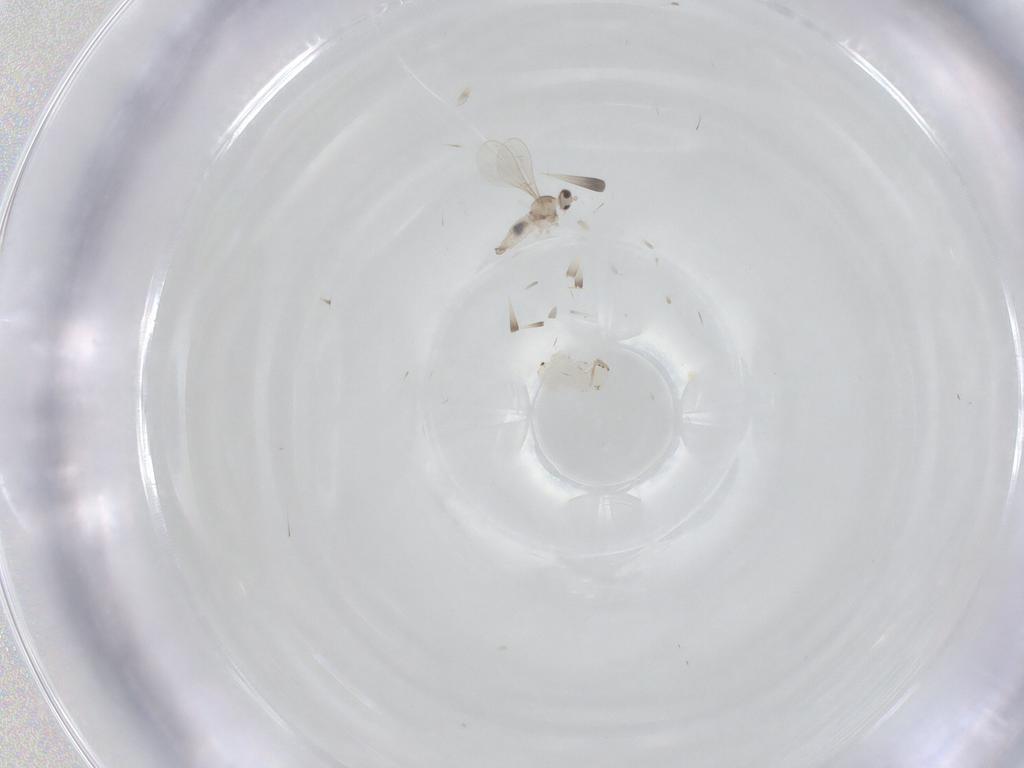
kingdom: Animalia
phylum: Arthropoda
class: Insecta
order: Diptera
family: Cecidomyiidae
